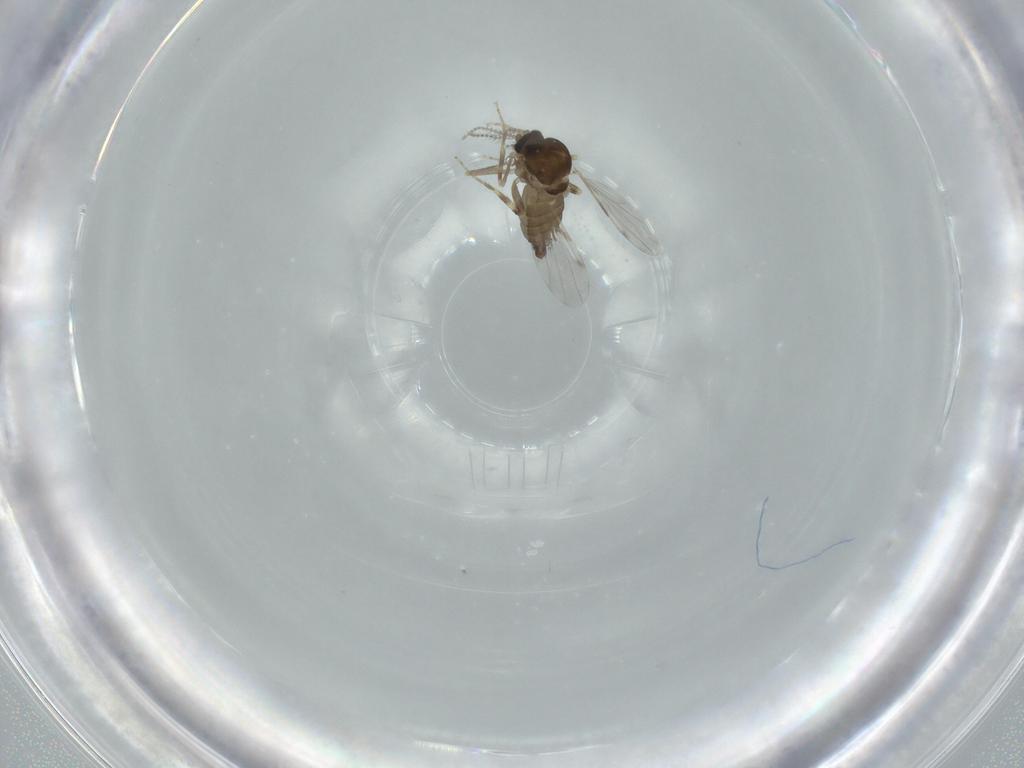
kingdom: Animalia
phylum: Arthropoda
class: Insecta
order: Diptera
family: Ceratopogonidae
